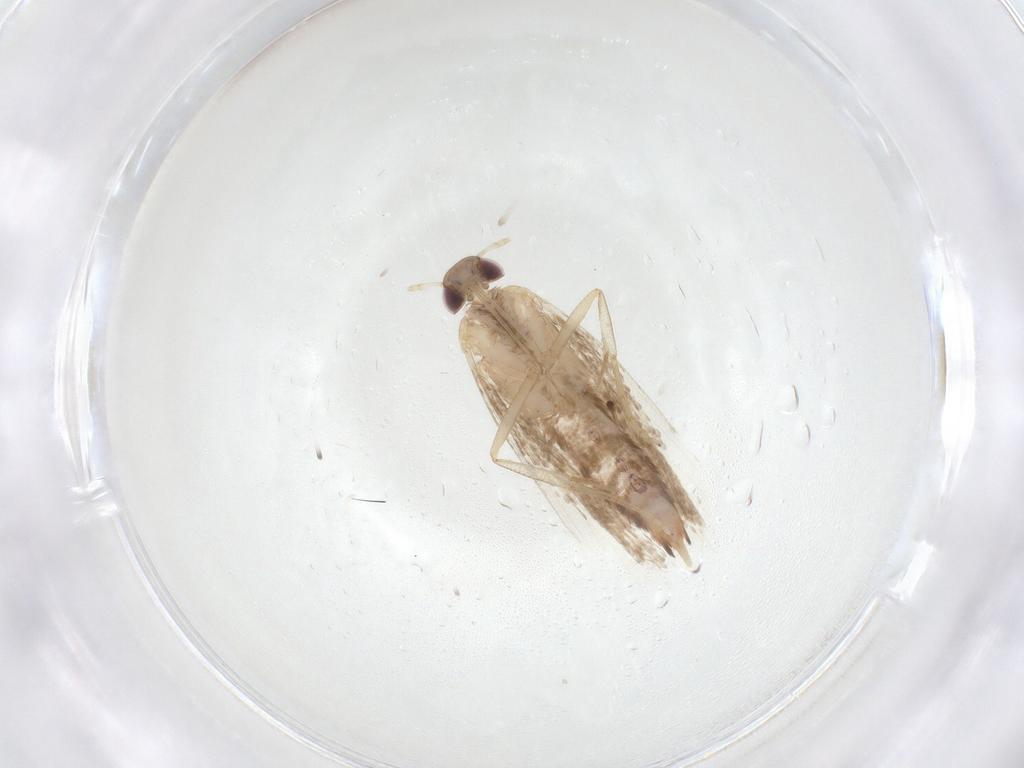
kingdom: Animalia
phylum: Arthropoda
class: Insecta
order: Lepidoptera
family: Gelechiidae
